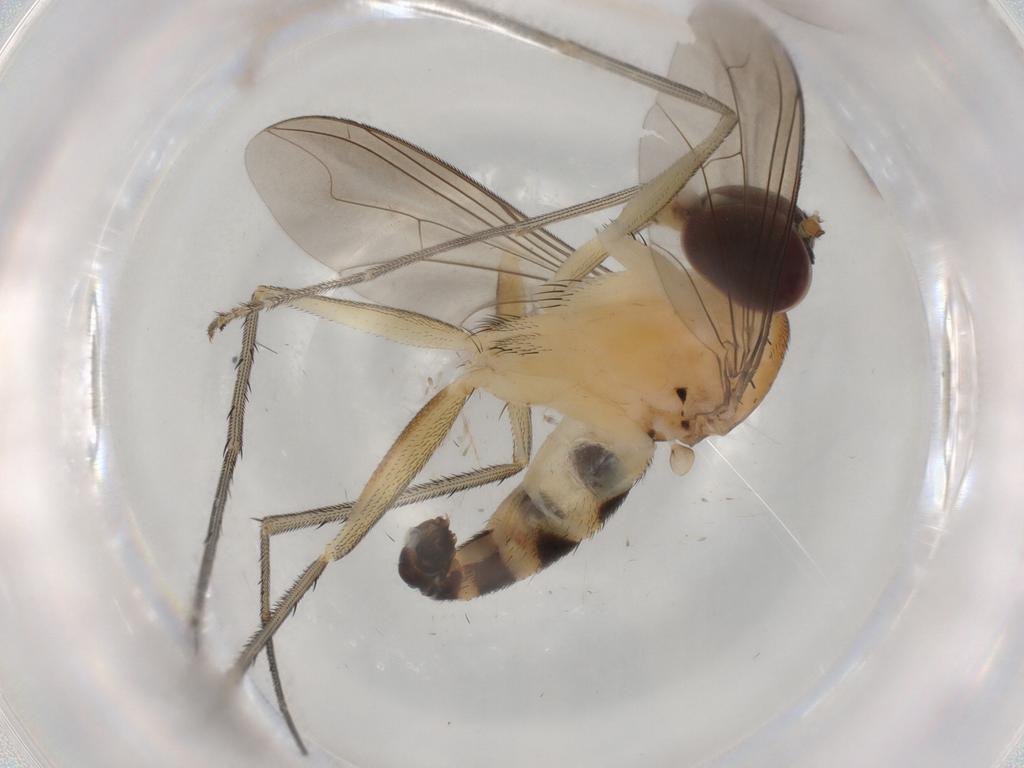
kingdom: Animalia
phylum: Arthropoda
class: Insecta
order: Diptera
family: Dolichopodidae
